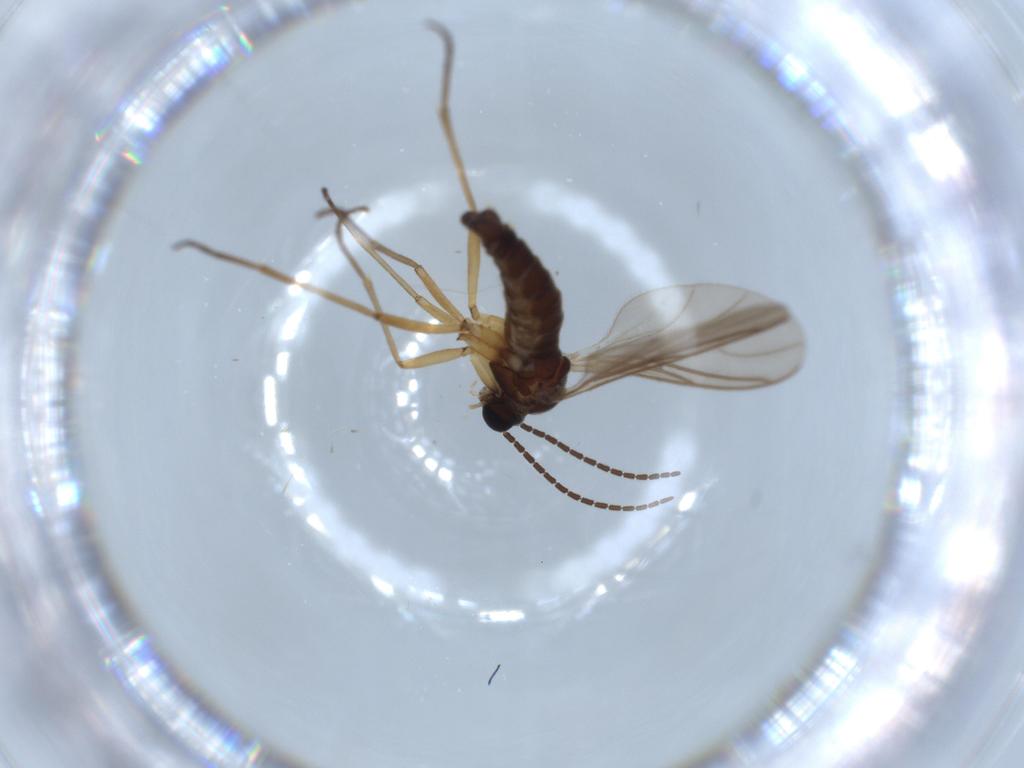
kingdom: Animalia
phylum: Arthropoda
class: Insecta
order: Diptera
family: Sciaridae
